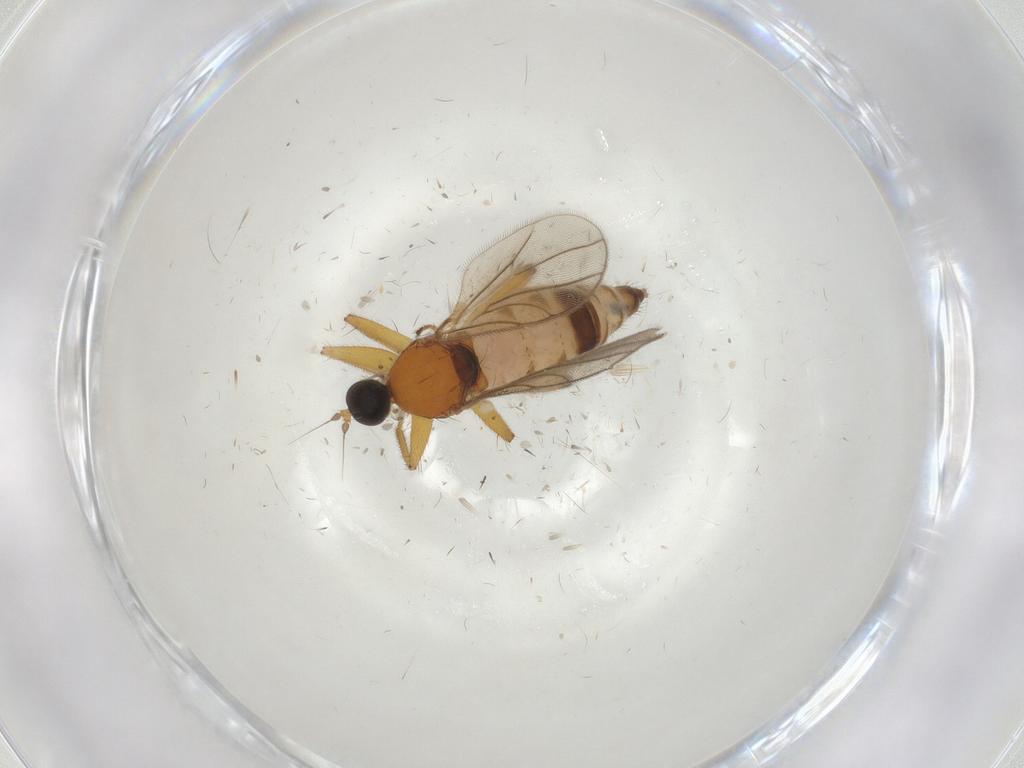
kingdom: Animalia
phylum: Arthropoda
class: Insecta
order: Diptera
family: Hybotidae
